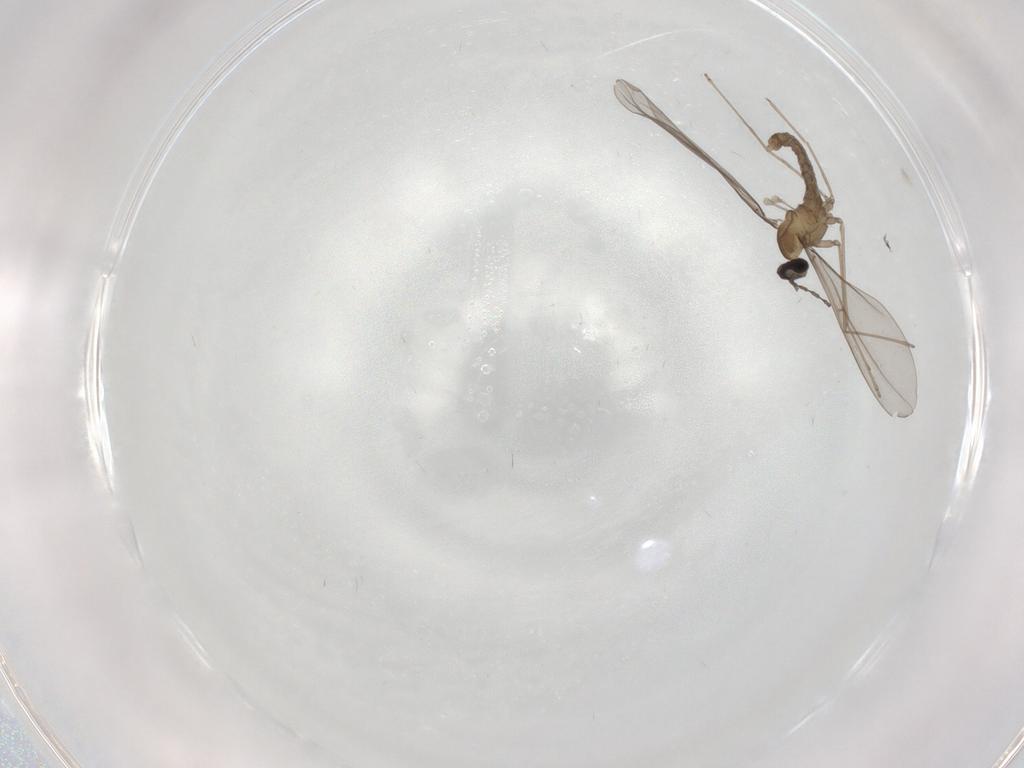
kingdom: Animalia
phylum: Arthropoda
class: Insecta
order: Diptera
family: Cecidomyiidae
